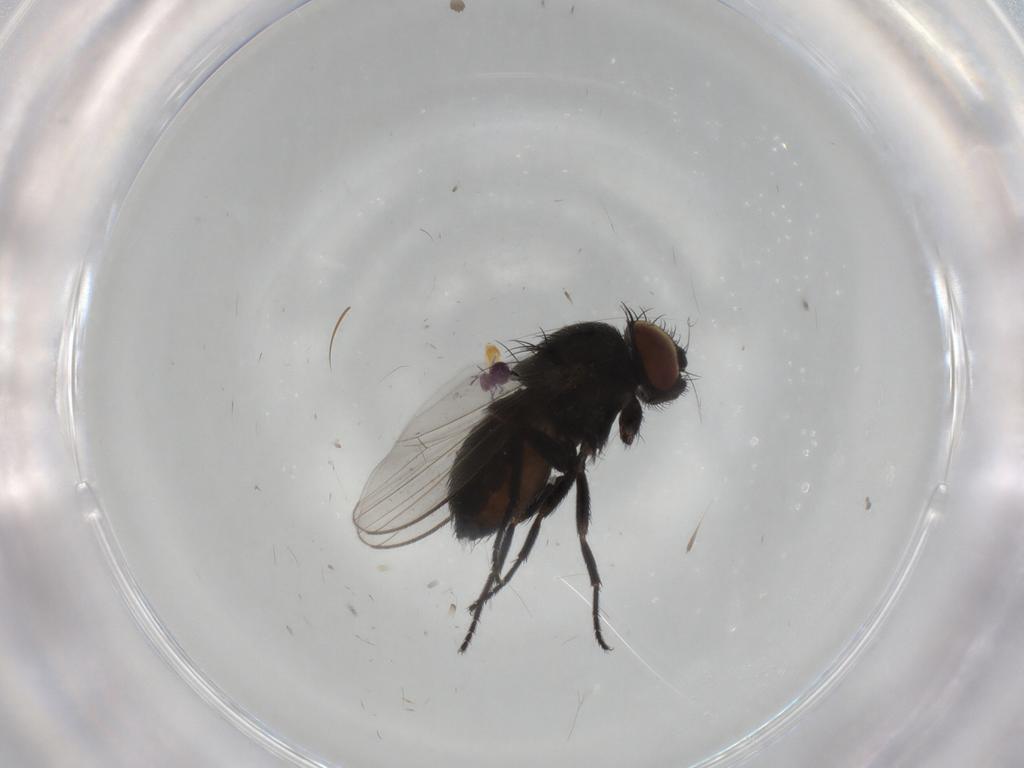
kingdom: Animalia
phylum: Arthropoda
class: Insecta
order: Diptera
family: Milichiidae
